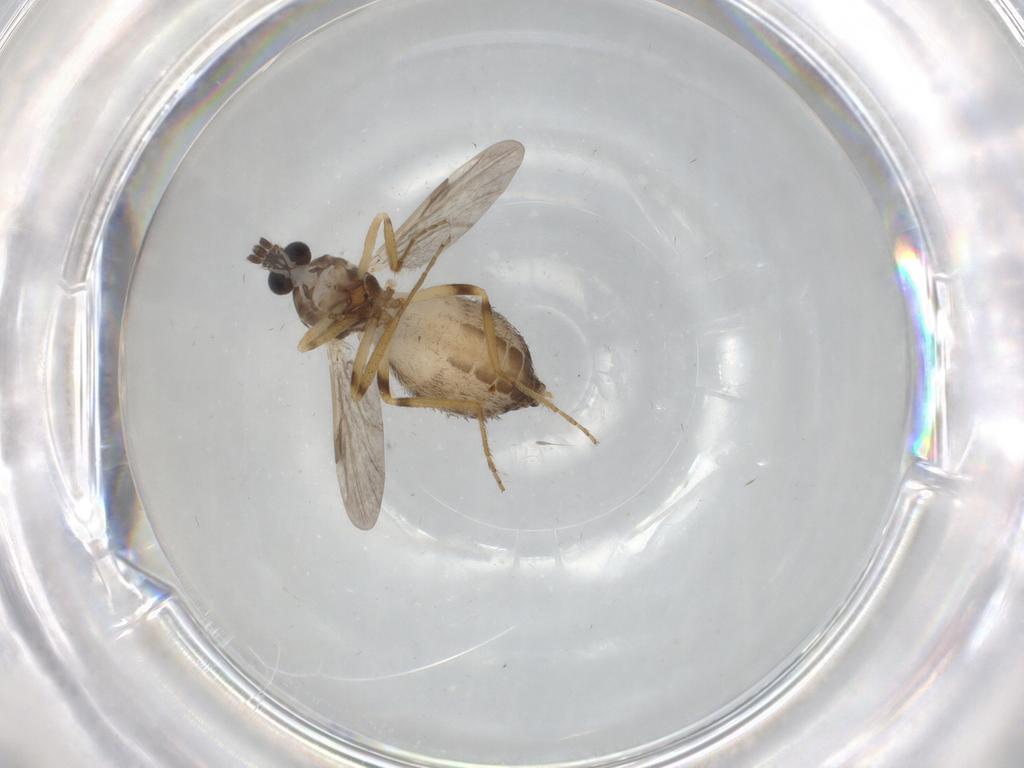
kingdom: Animalia
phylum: Arthropoda
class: Insecta
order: Diptera
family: Ceratopogonidae
